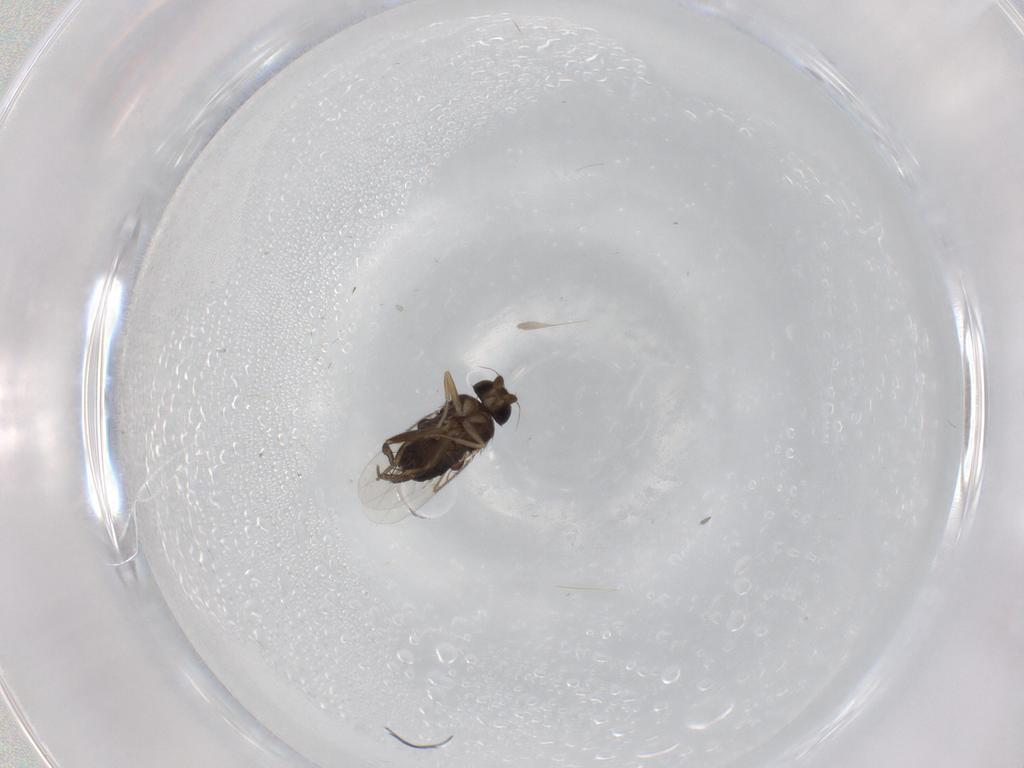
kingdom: Animalia
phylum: Arthropoda
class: Insecta
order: Diptera
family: Phoridae
